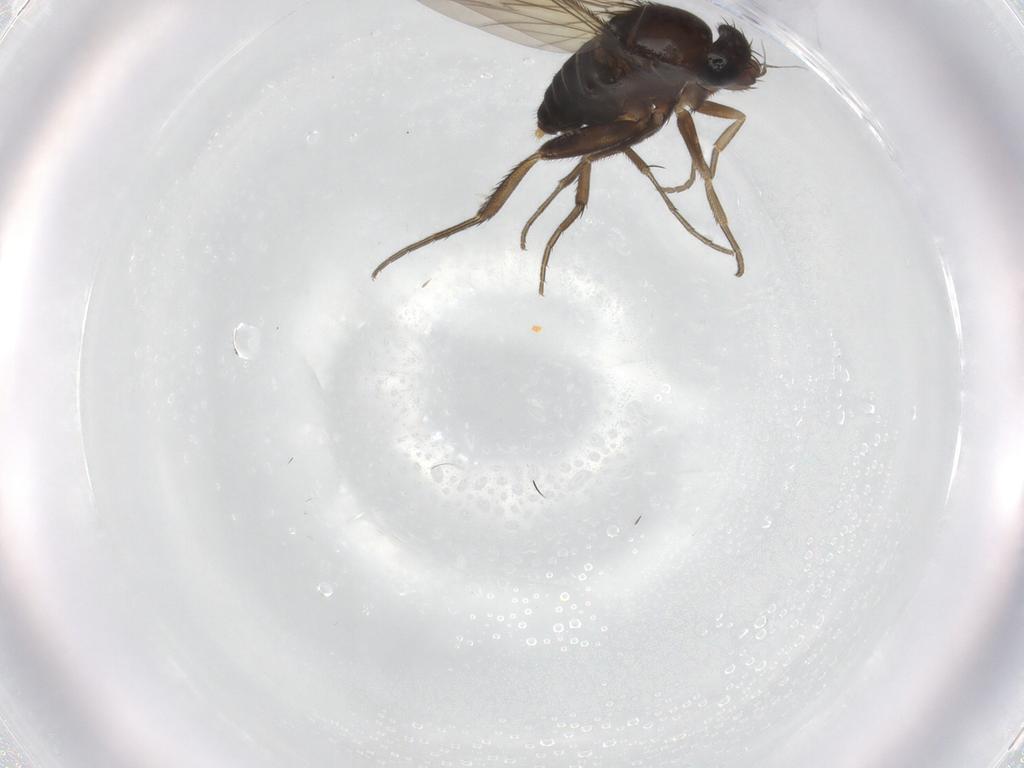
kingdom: Animalia
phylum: Arthropoda
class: Insecta
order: Diptera
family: Phoridae
